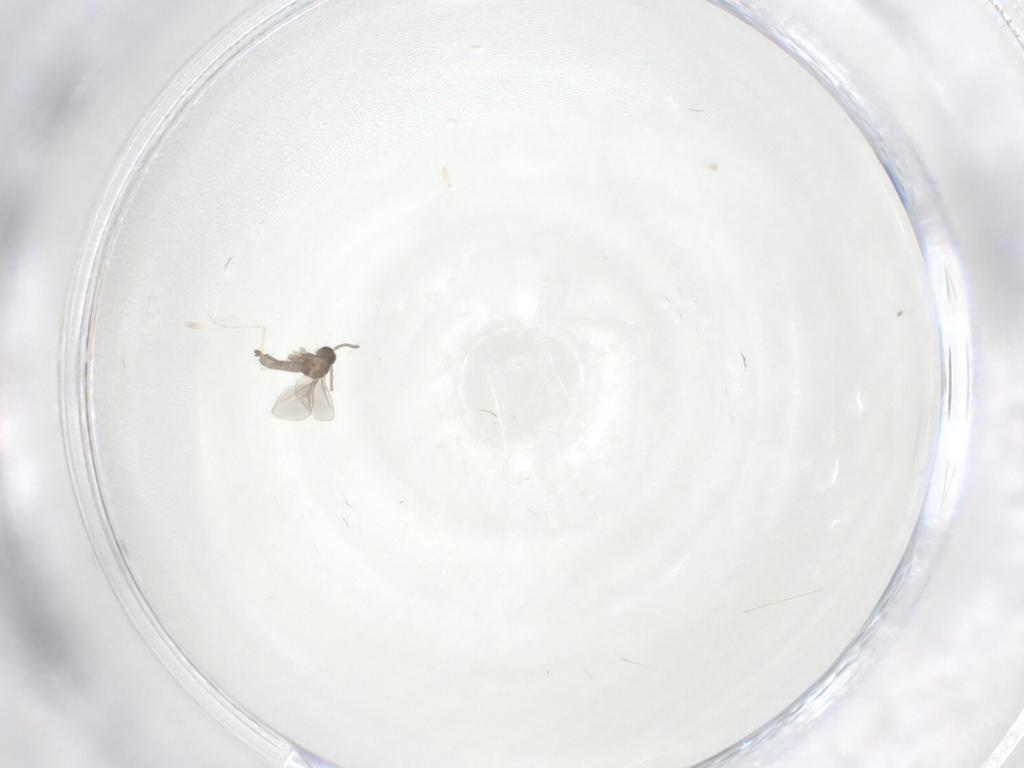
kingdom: Animalia
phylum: Arthropoda
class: Insecta
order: Diptera
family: Cecidomyiidae
